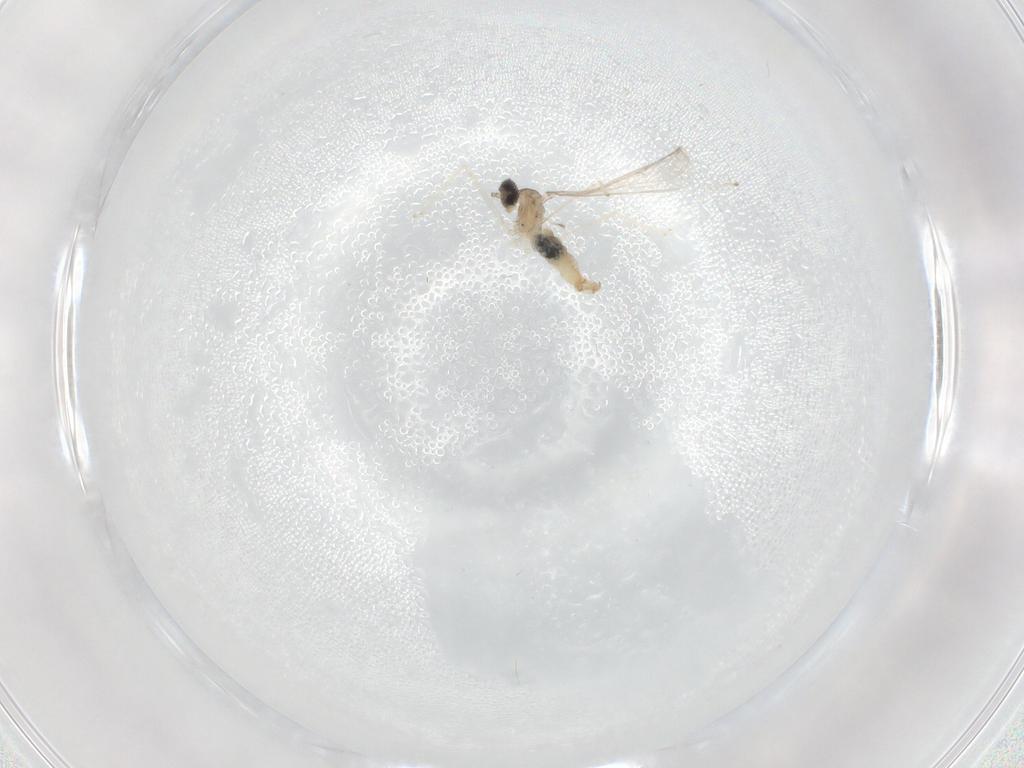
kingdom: Animalia
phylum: Arthropoda
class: Insecta
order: Diptera
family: Cecidomyiidae
